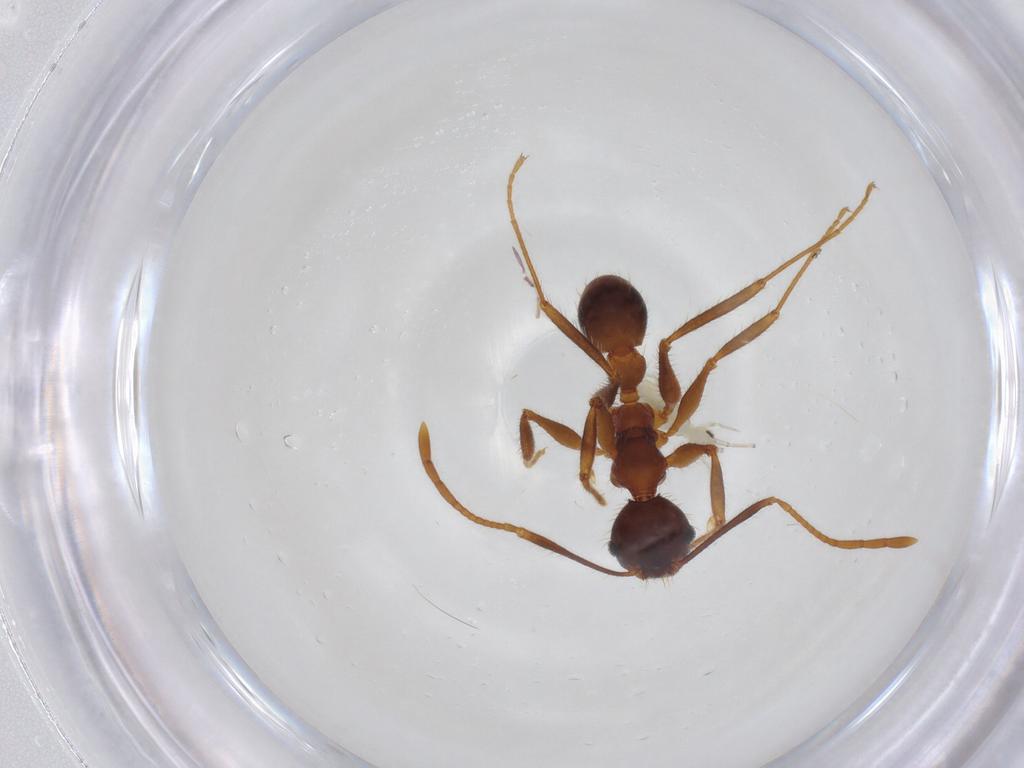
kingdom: Animalia
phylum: Arthropoda
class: Insecta
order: Hymenoptera
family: Formicidae
